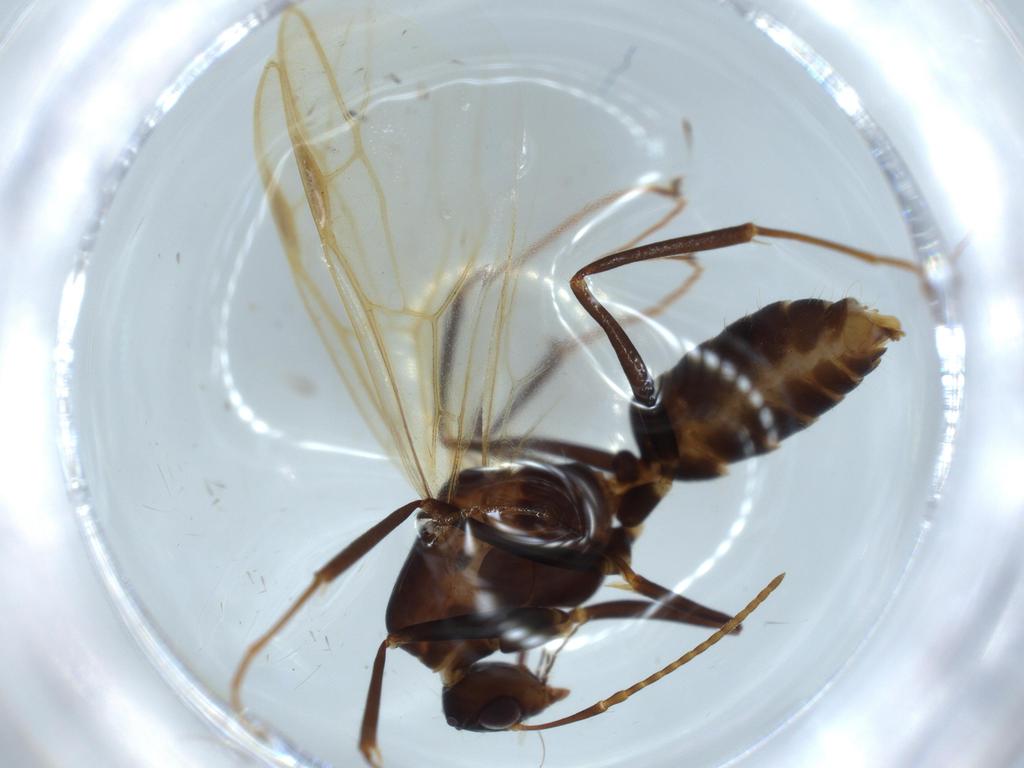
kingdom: Animalia
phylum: Arthropoda
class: Insecta
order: Hymenoptera
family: Formicidae
